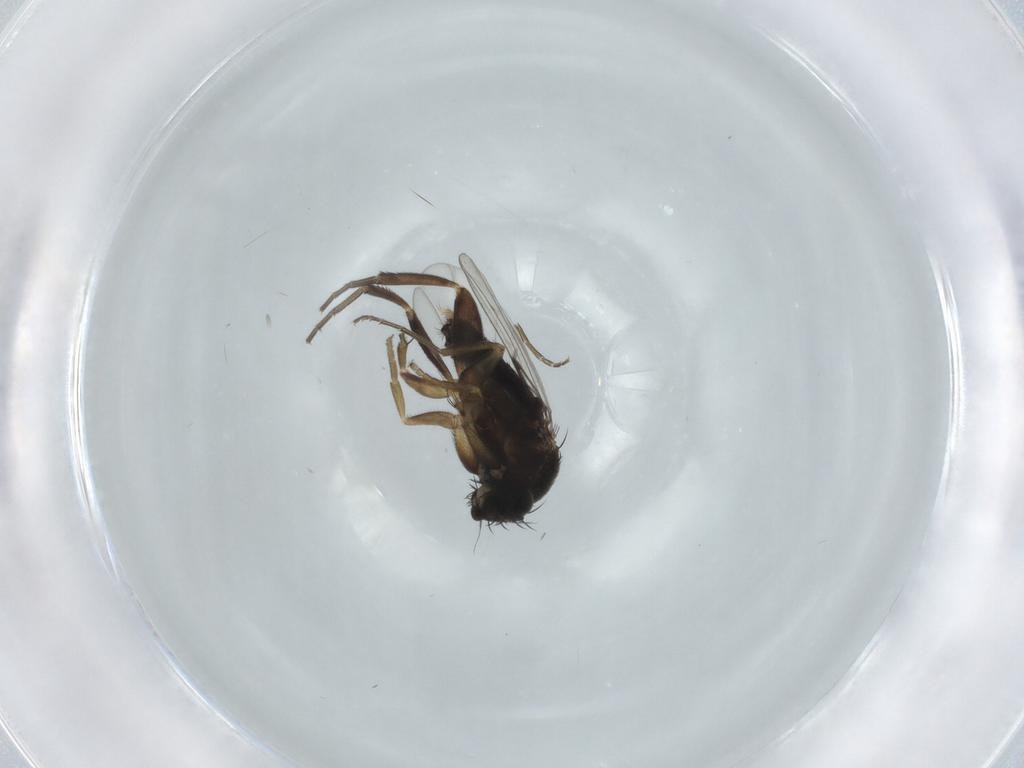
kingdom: Animalia
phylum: Arthropoda
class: Insecta
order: Diptera
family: Phoridae
